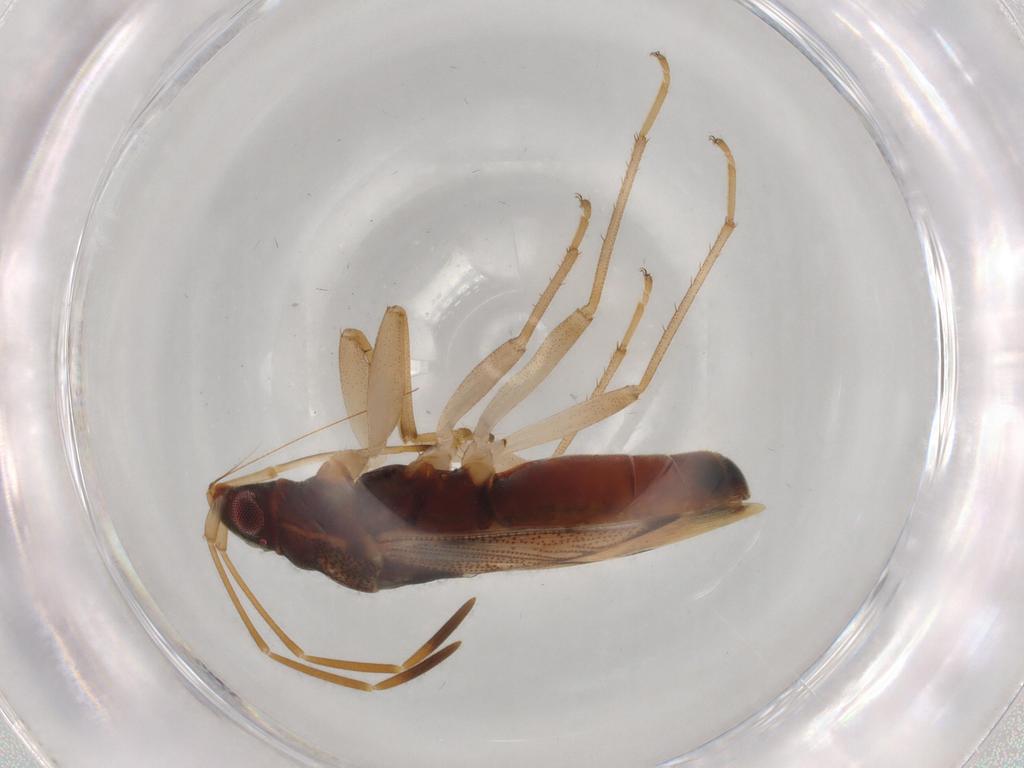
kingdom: Animalia
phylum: Arthropoda
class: Insecta
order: Hemiptera
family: Rhyparochromidae
